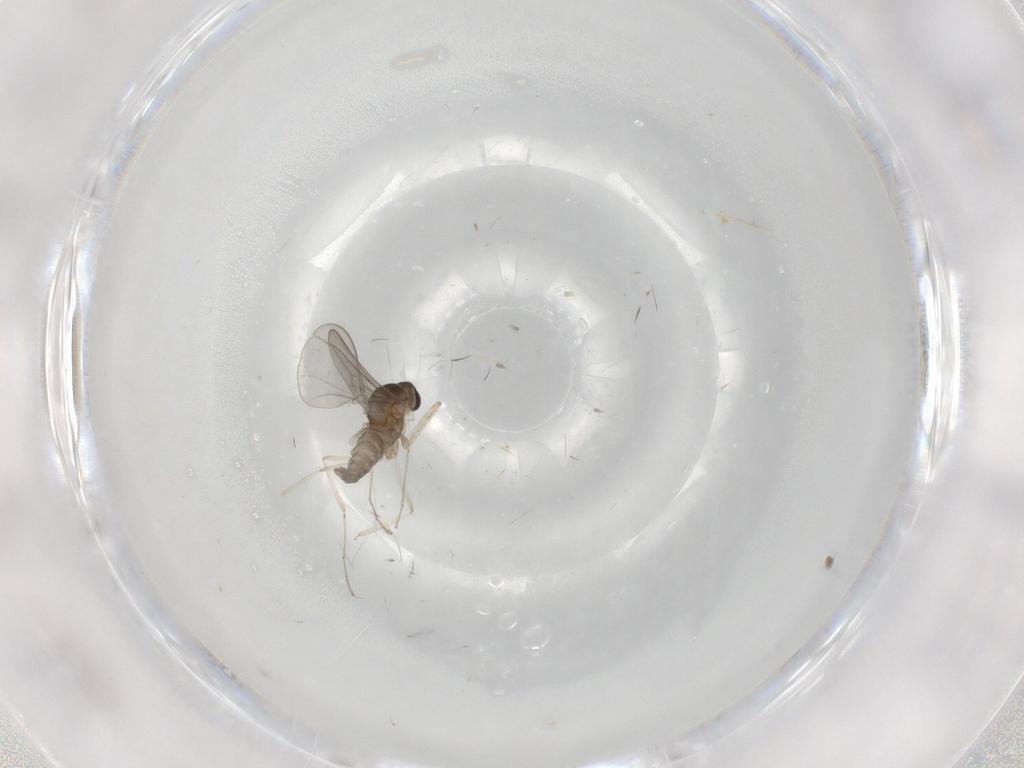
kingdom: Animalia
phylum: Arthropoda
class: Insecta
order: Diptera
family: Cecidomyiidae
